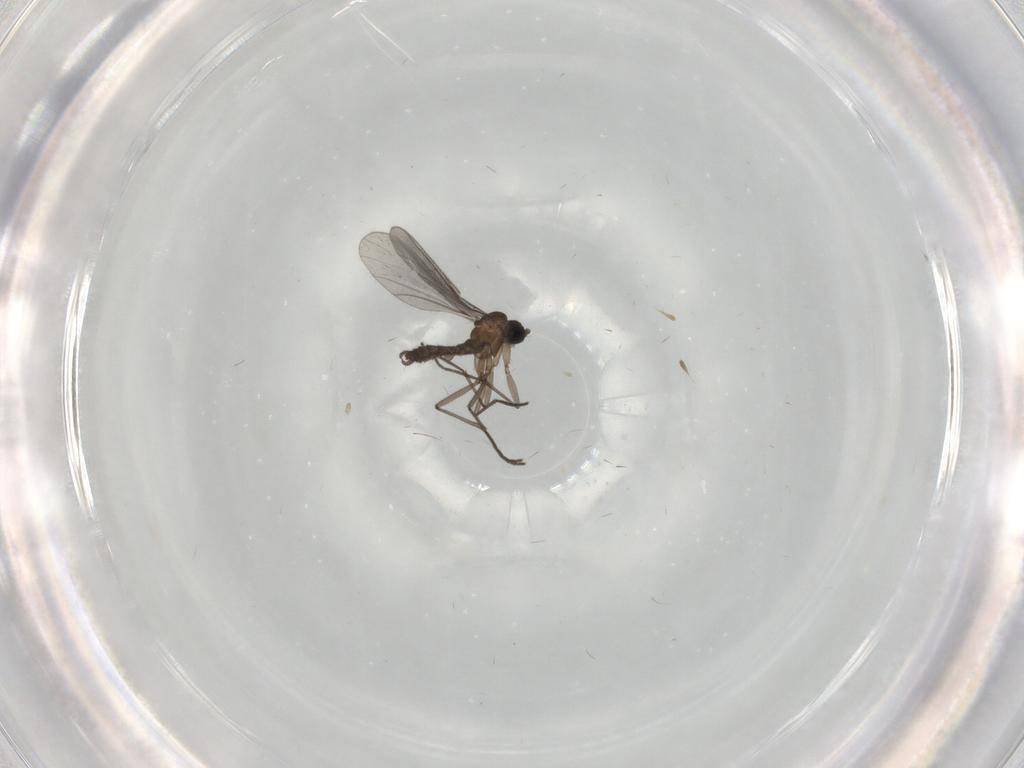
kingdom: Animalia
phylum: Arthropoda
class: Insecta
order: Diptera
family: Sciaridae
